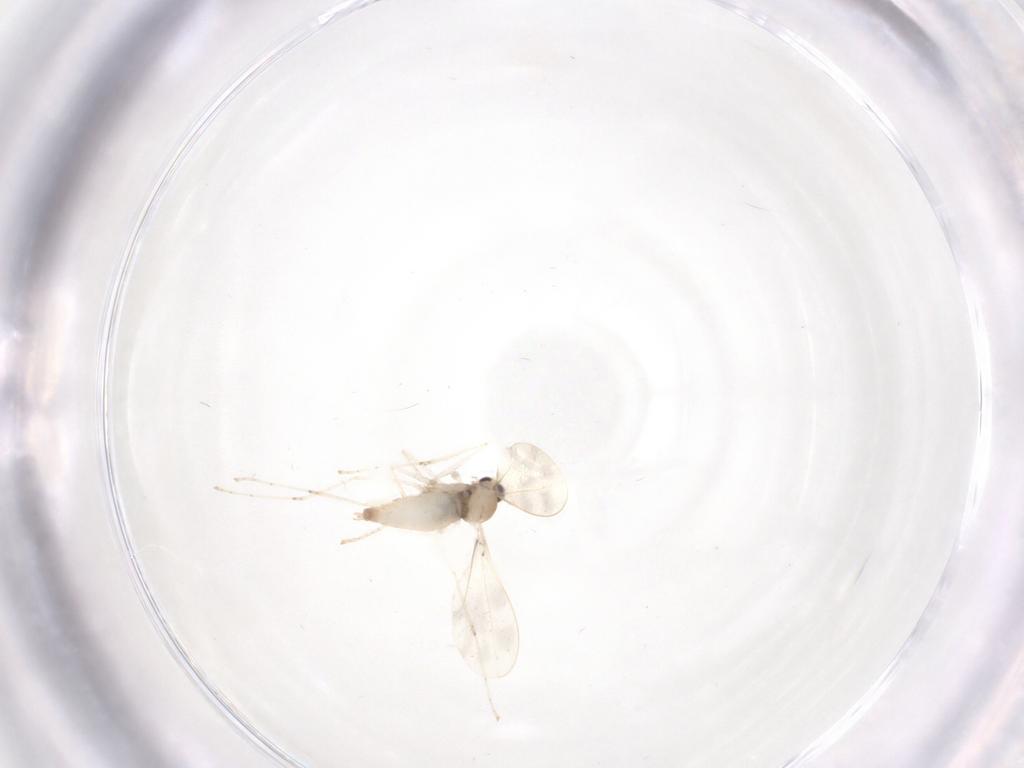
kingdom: Animalia
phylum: Arthropoda
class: Insecta
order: Diptera
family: Cecidomyiidae
